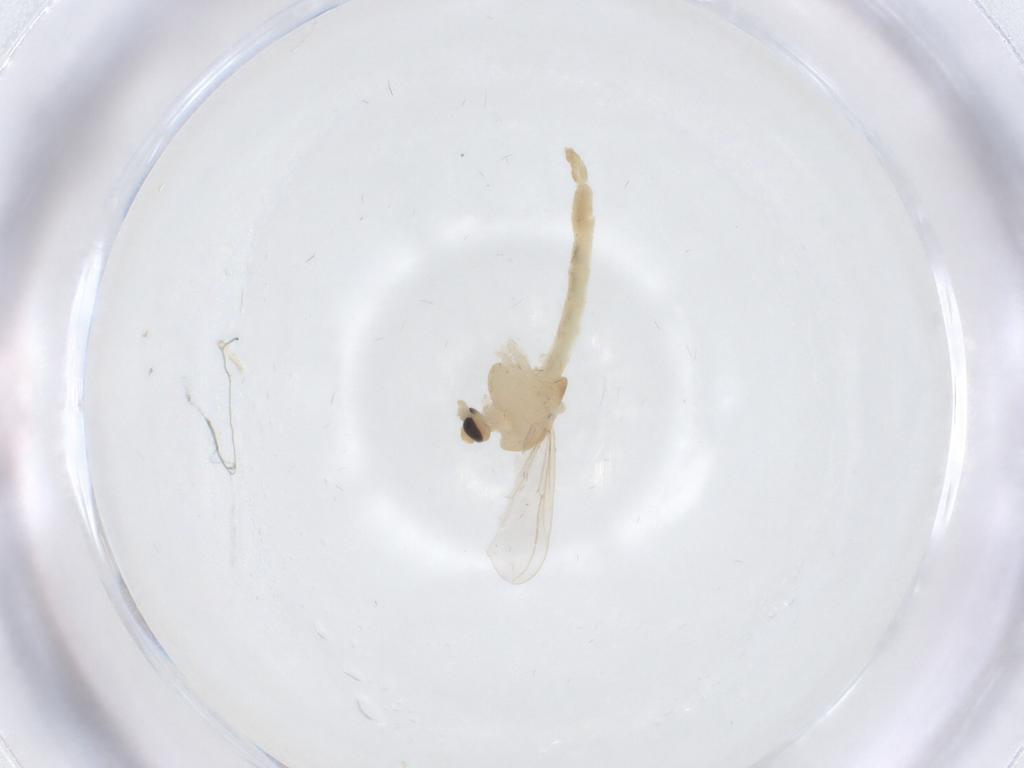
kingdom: Animalia
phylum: Arthropoda
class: Insecta
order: Diptera
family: Chironomidae
